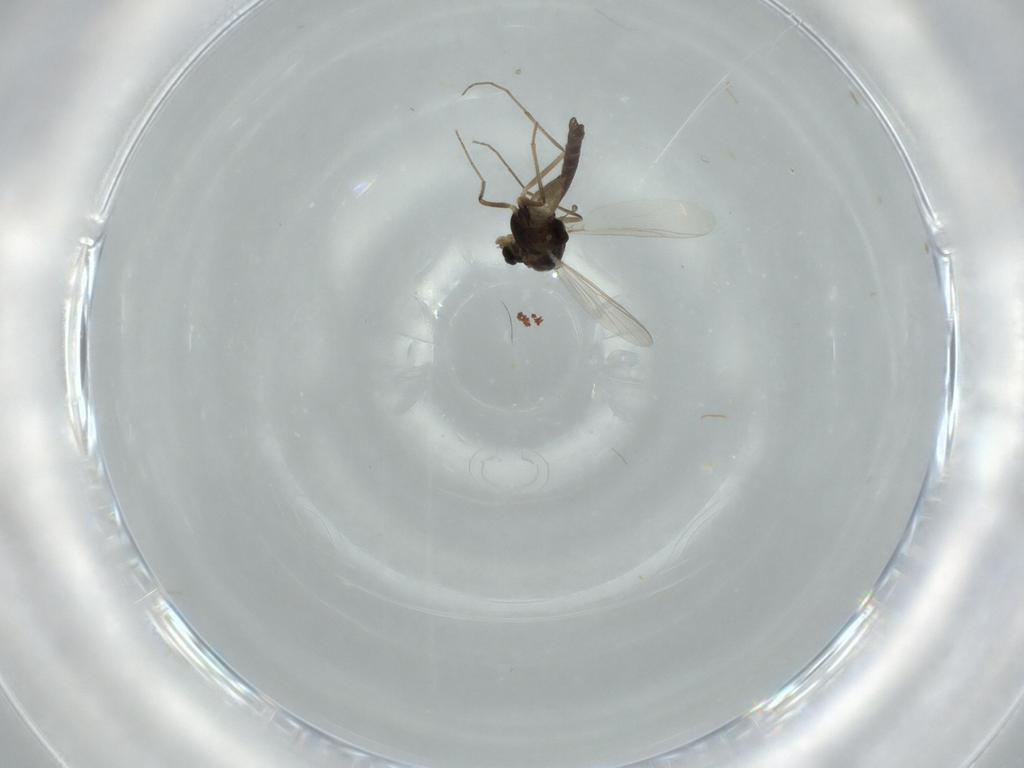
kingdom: Animalia
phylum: Arthropoda
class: Insecta
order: Diptera
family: Chironomidae
